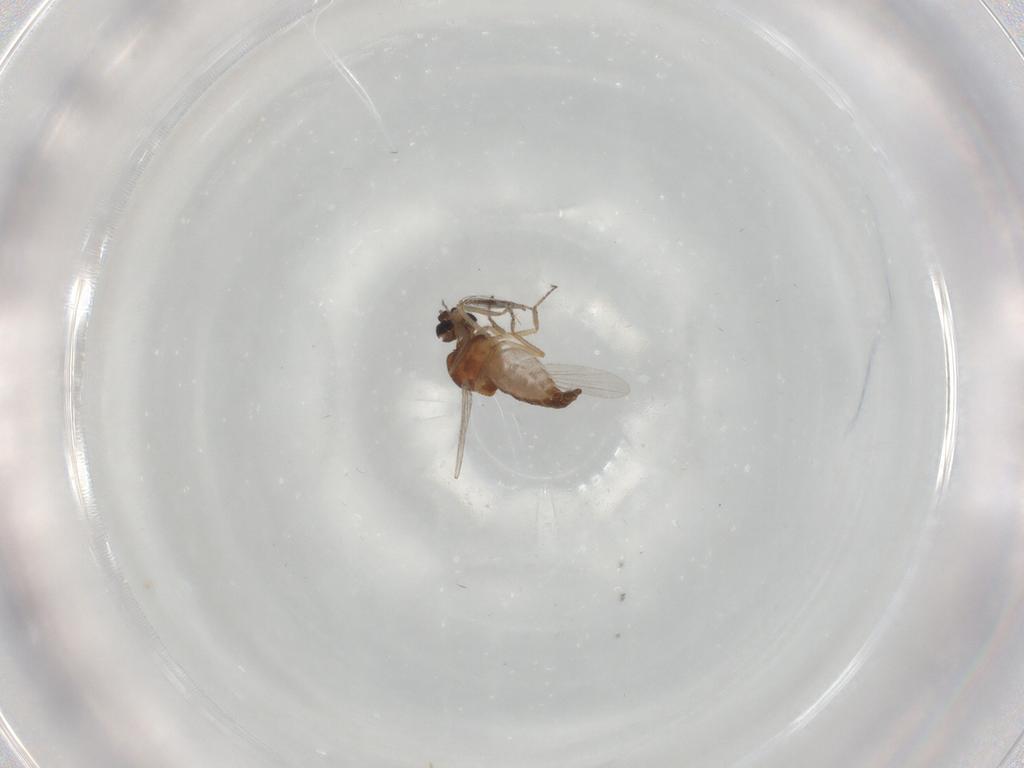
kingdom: Animalia
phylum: Arthropoda
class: Insecta
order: Diptera
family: Ceratopogonidae
